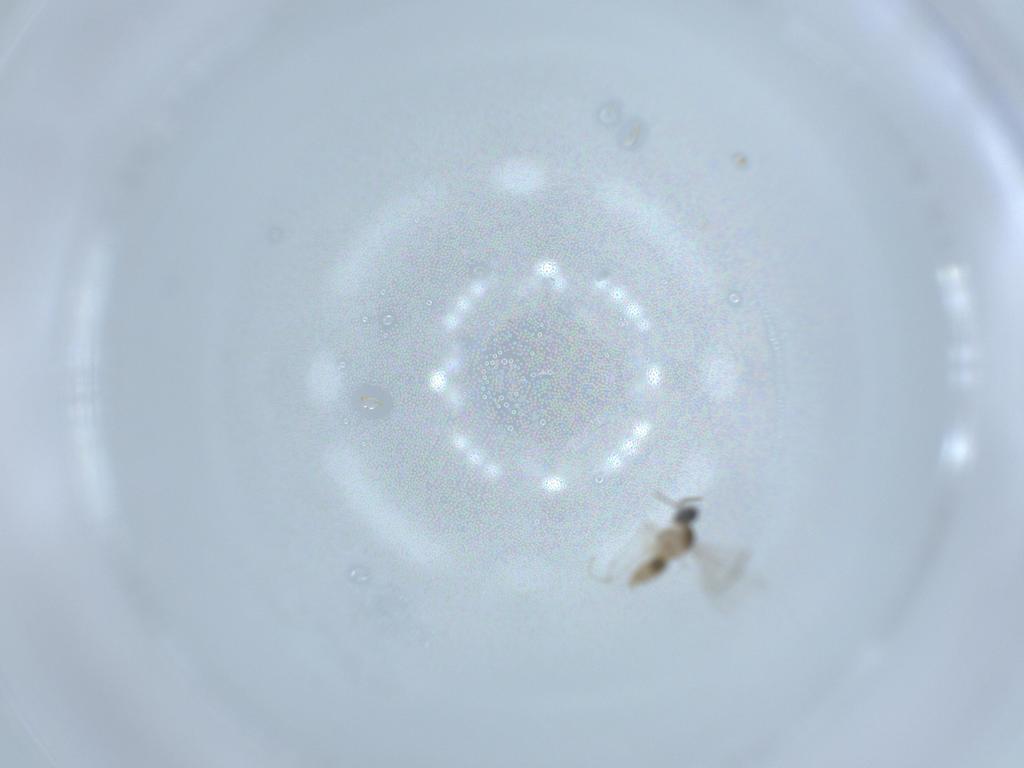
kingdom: Animalia
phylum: Arthropoda
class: Insecta
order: Diptera
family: Cecidomyiidae
